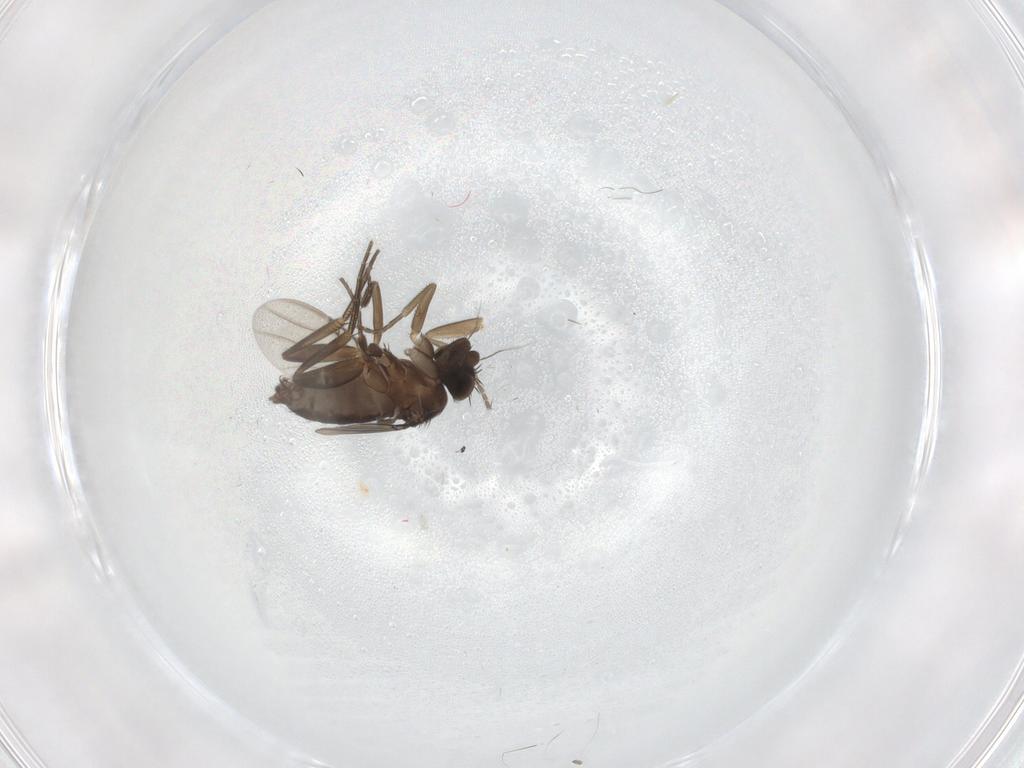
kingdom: Animalia
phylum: Arthropoda
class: Insecta
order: Diptera
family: Phoridae
